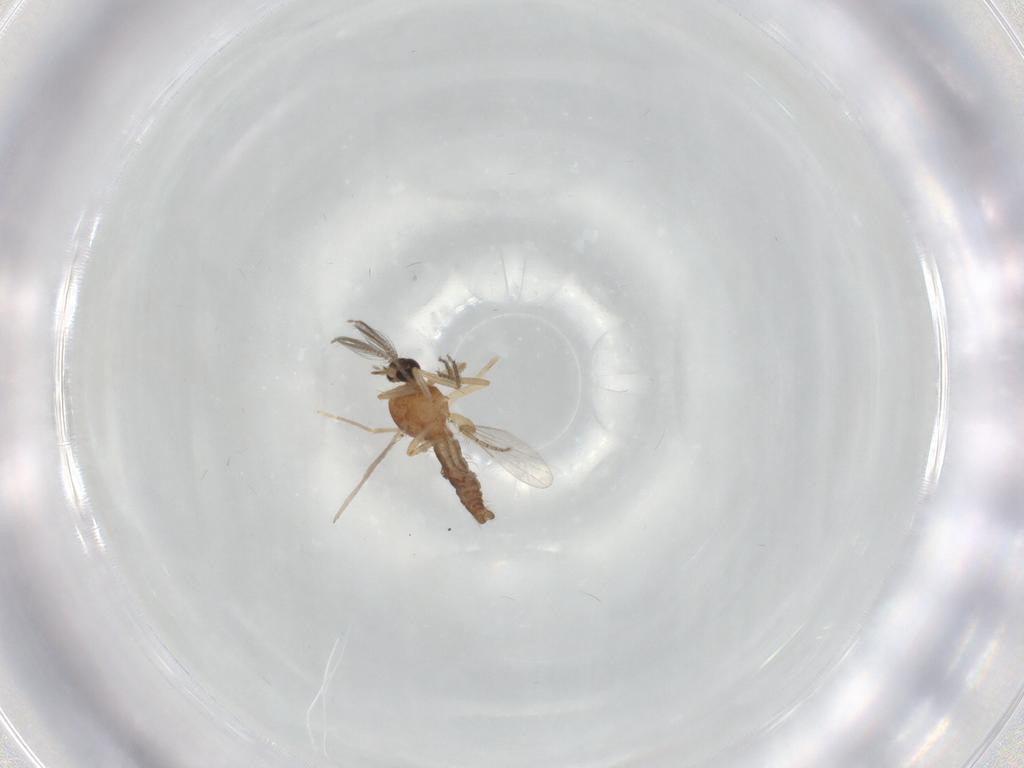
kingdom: Animalia
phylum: Arthropoda
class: Insecta
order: Diptera
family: Ceratopogonidae
